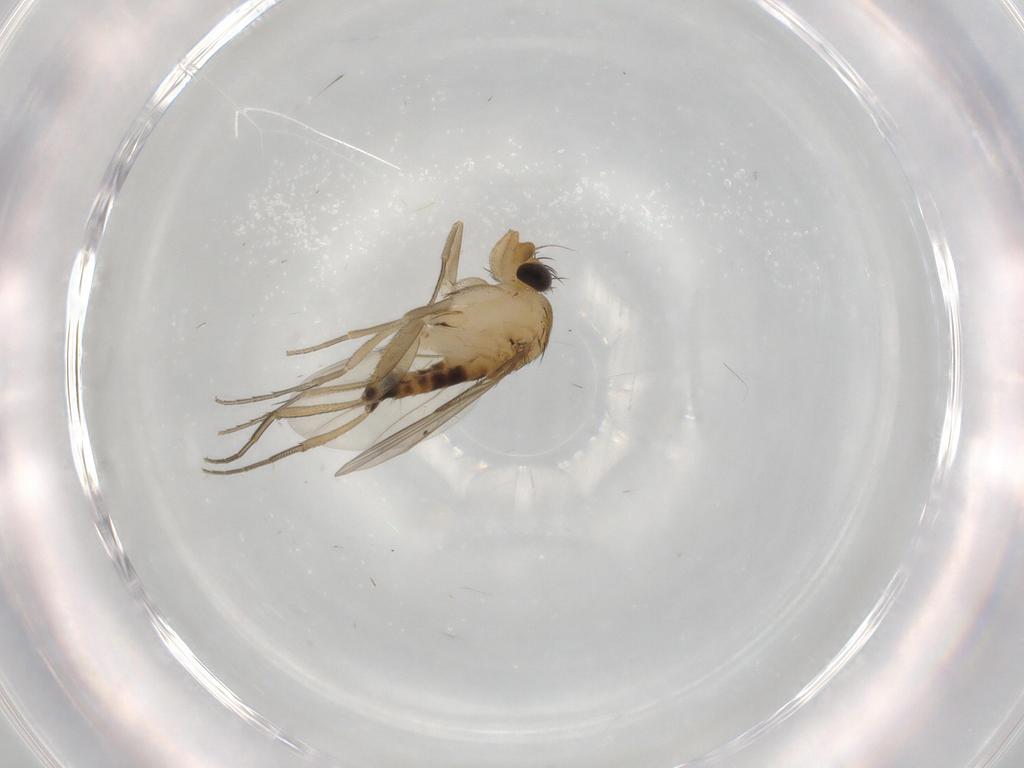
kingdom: Animalia
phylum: Arthropoda
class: Insecta
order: Diptera
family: Phoridae
